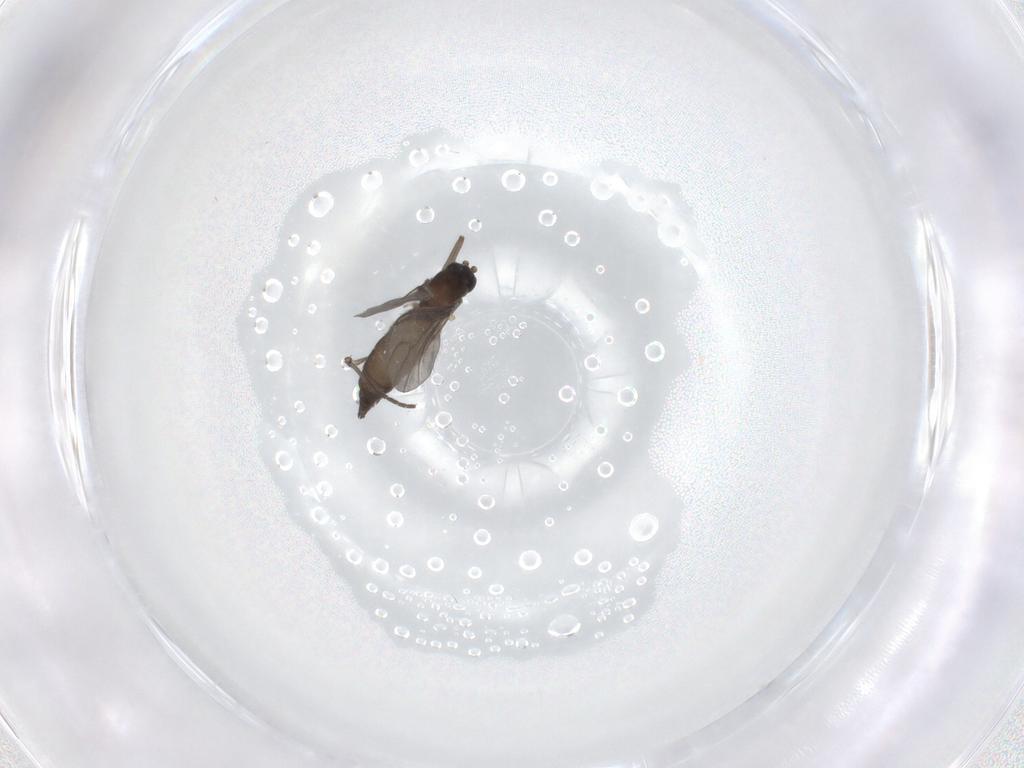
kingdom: Animalia
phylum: Arthropoda
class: Insecta
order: Diptera
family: Sciaridae
